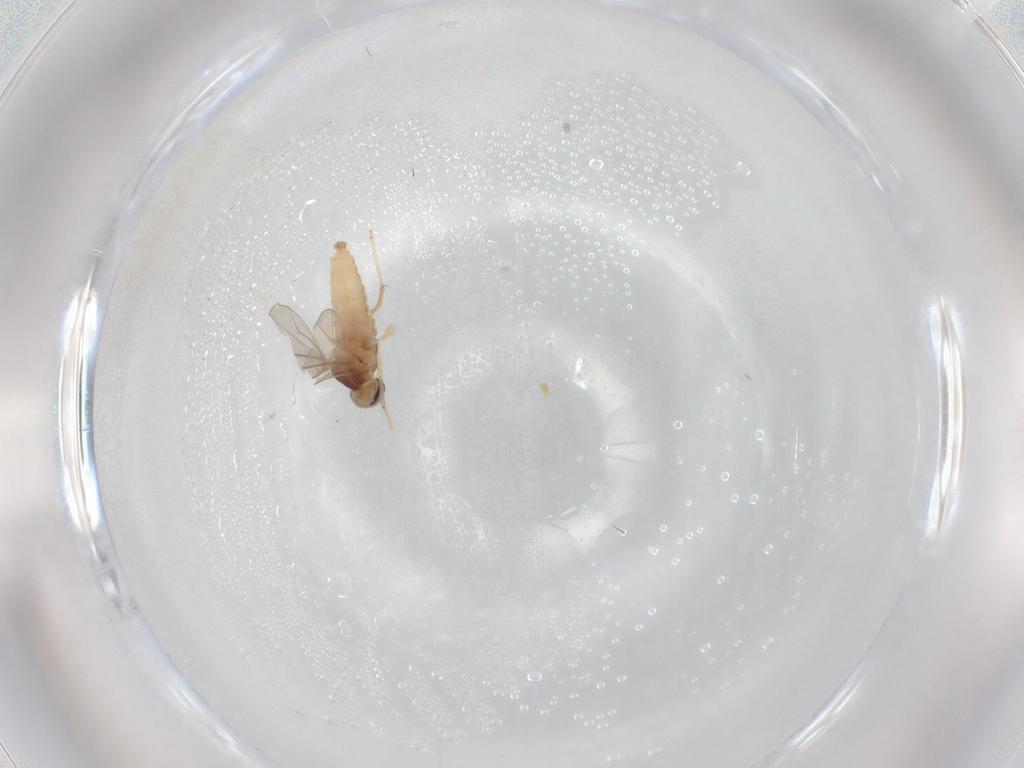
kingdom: Animalia
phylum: Arthropoda
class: Insecta
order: Diptera
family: Cecidomyiidae
